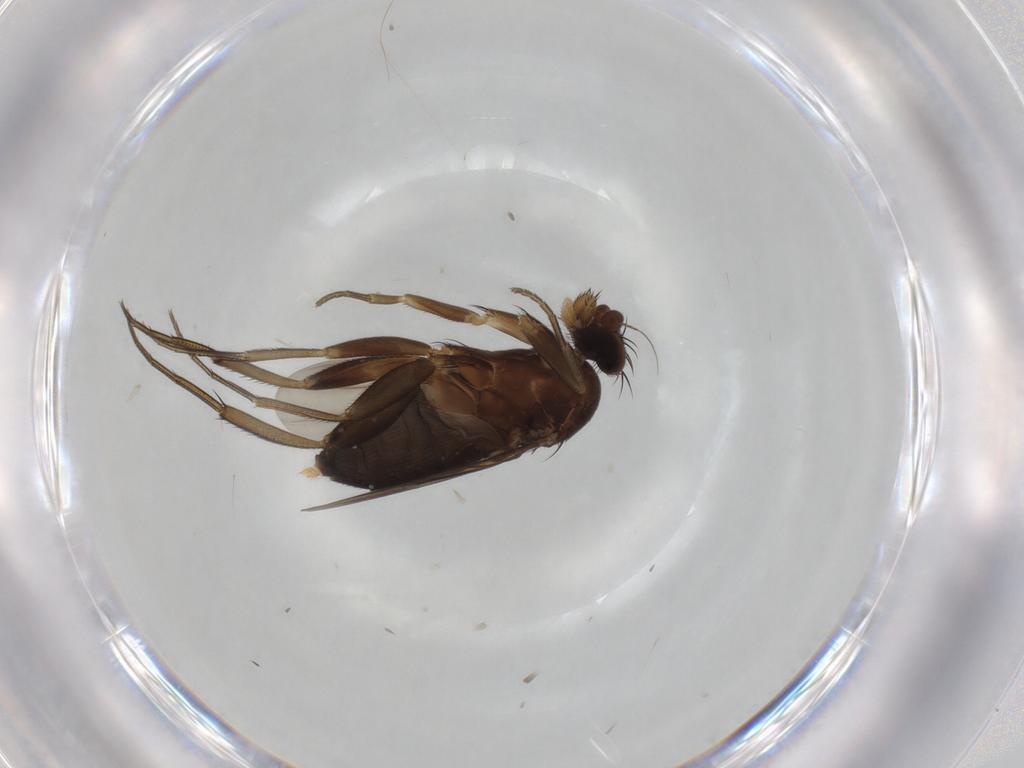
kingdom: Animalia
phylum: Arthropoda
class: Insecta
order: Diptera
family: Phoridae
